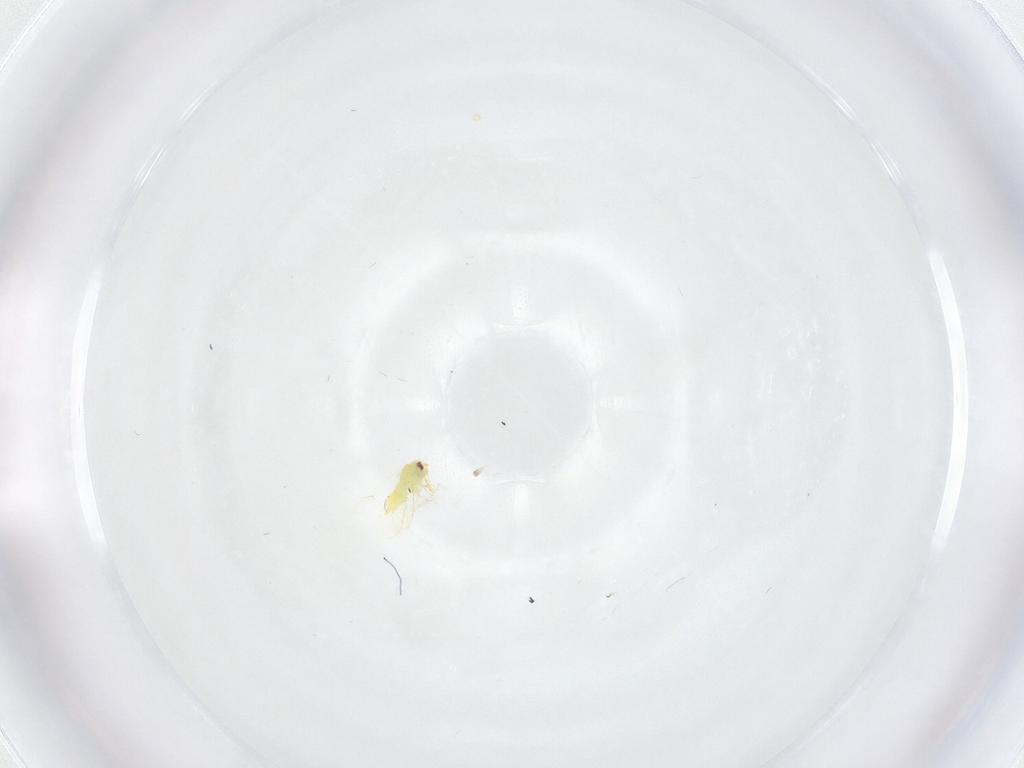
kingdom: Animalia
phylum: Arthropoda
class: Insecta
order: Hemiptera
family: Aleyrodidae
